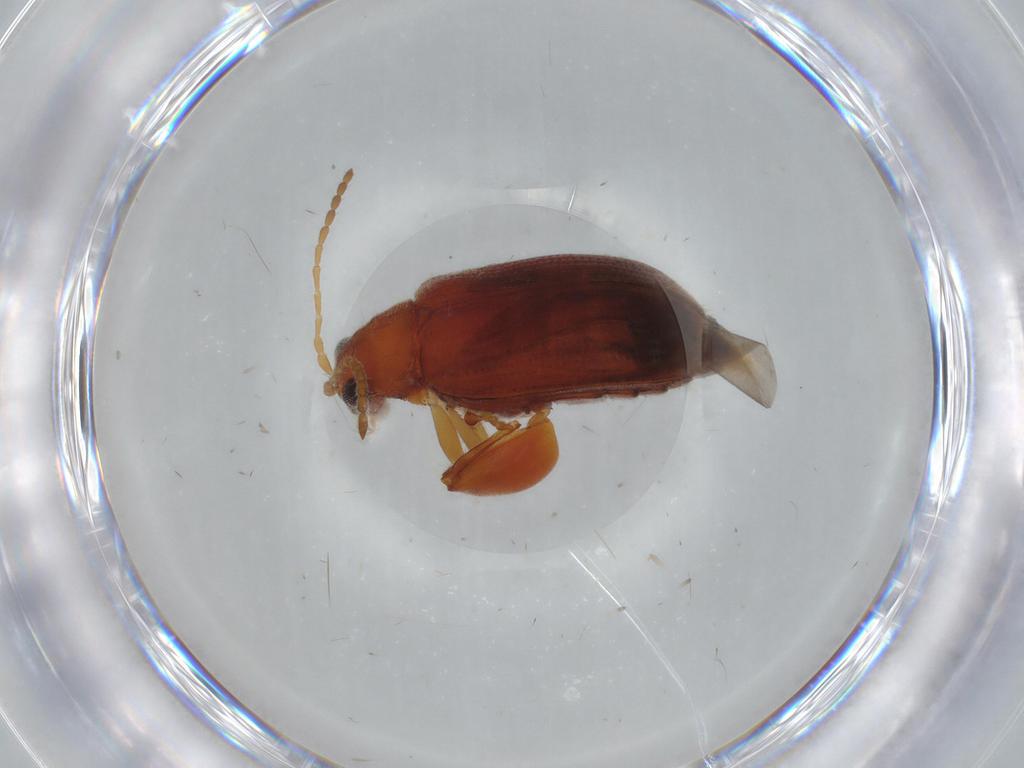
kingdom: Animalia
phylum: Arthropoda
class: Insecta
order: Coleoptera
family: Chrysomelidae
